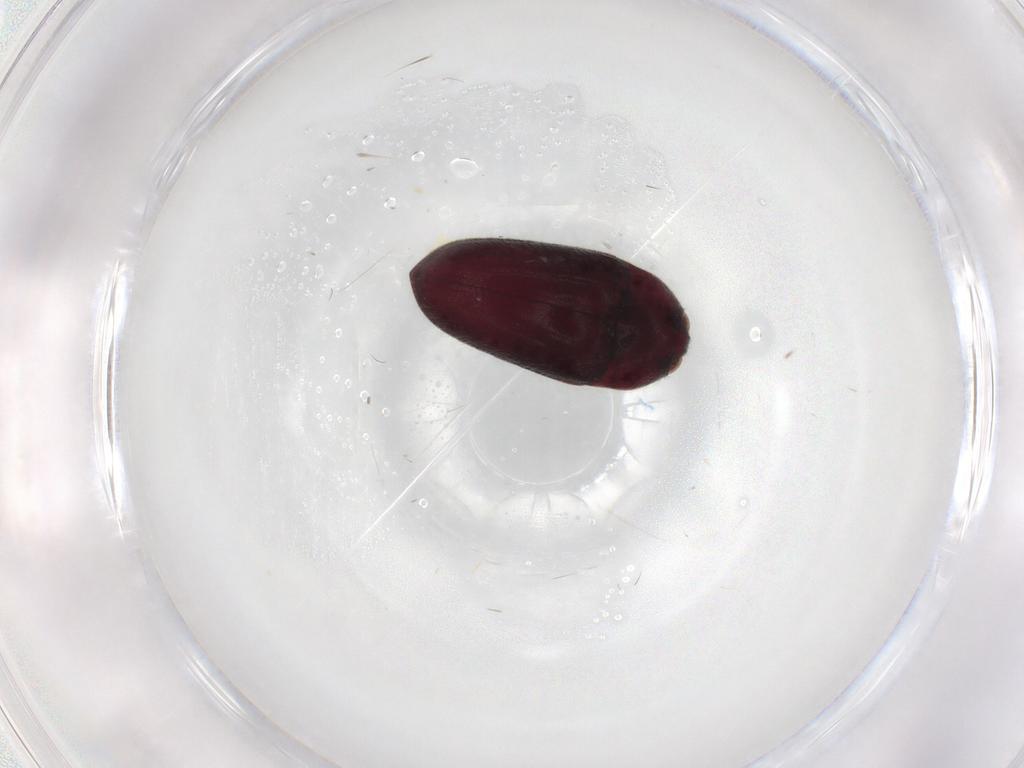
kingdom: Animalia
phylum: Arthropoda
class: Insecta
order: Coleoptera
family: Throscidae
